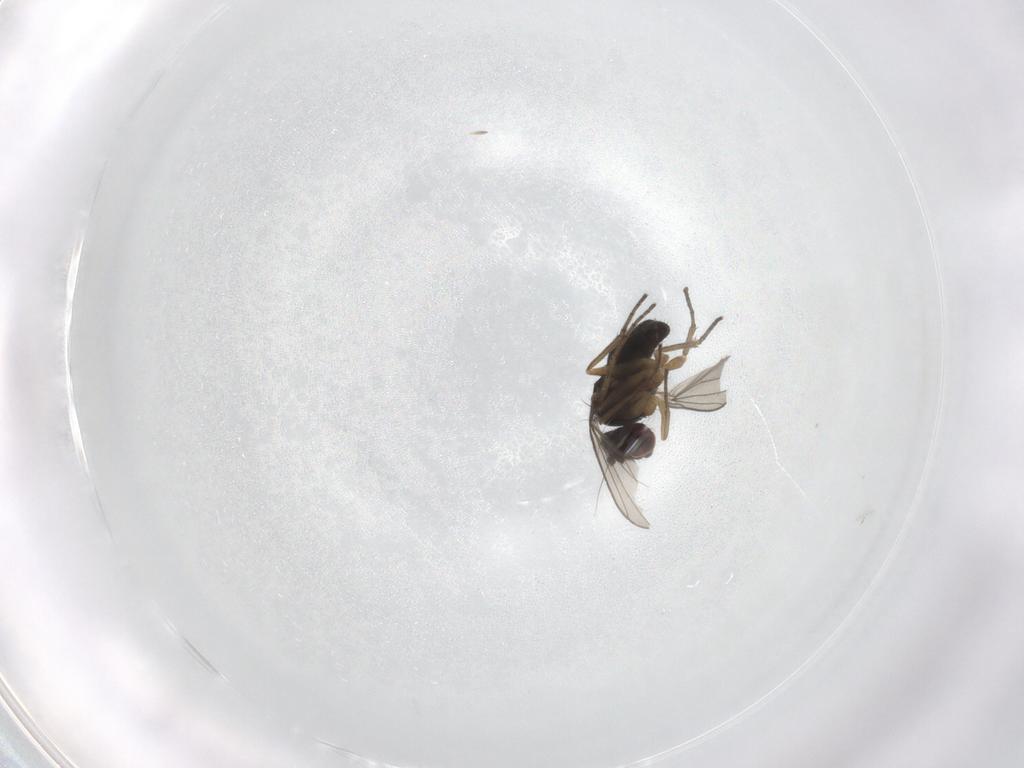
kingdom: Animalia
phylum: Arthropoda
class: Insecta
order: Diptera
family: Dolichopodidae
